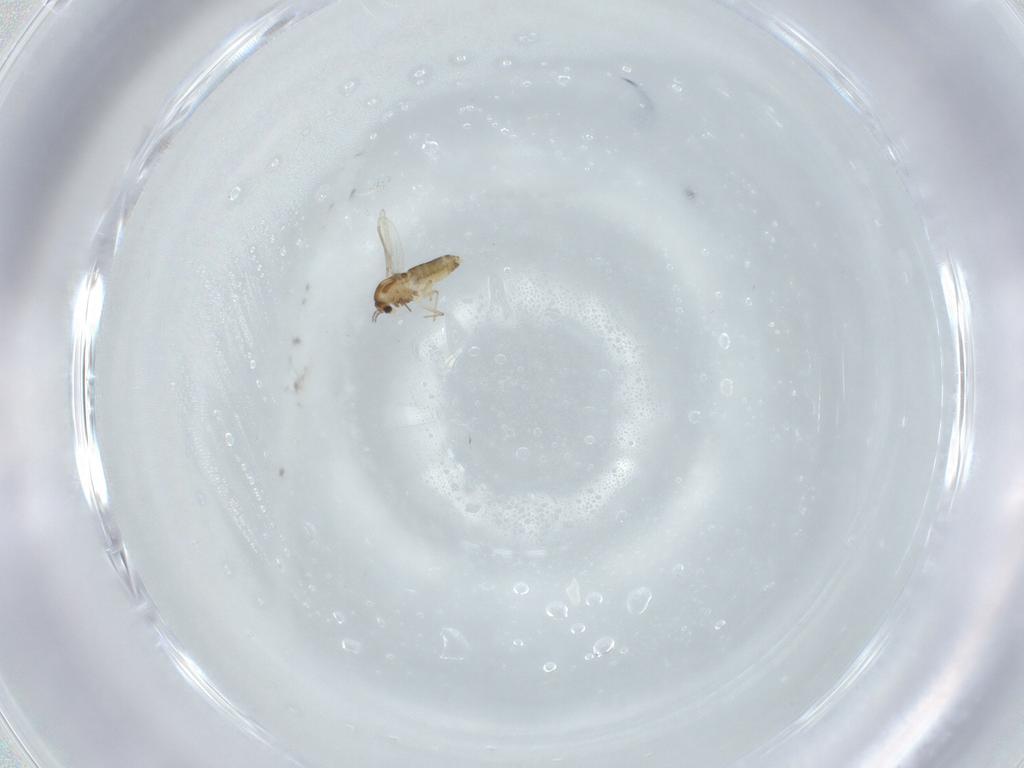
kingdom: Animalia
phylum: Arthropoda
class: Insecta
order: Diptera
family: Chironomidae
